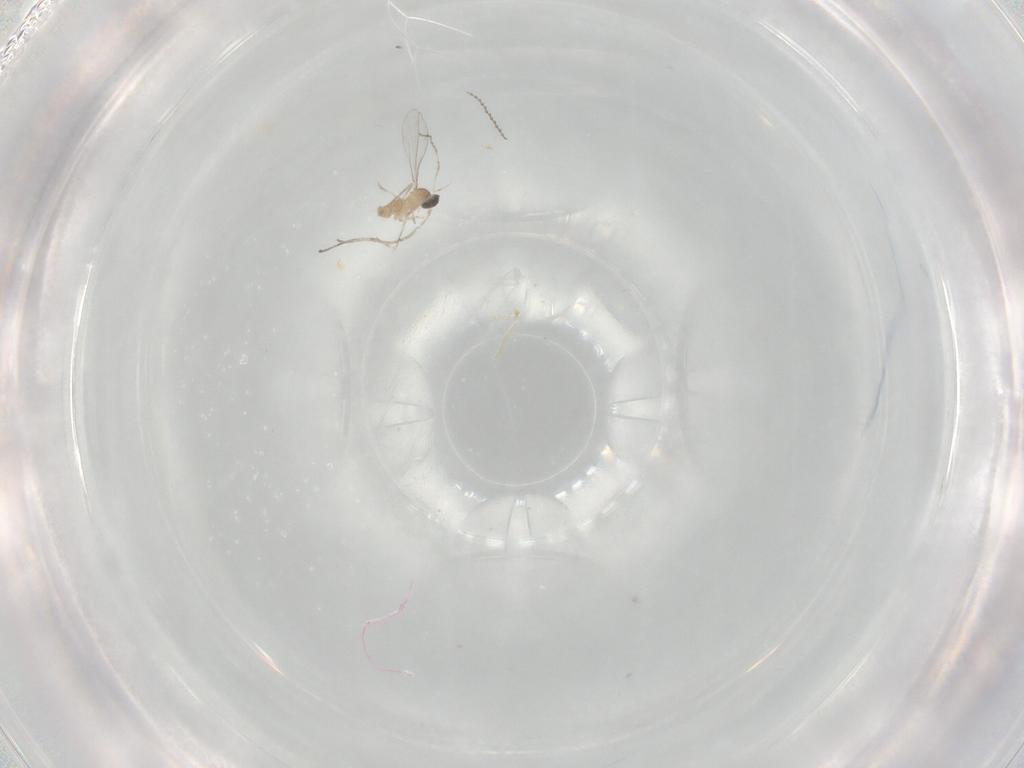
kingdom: Animalia
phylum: Arthropoda
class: Insecta
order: Diptera
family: Cecidomyiidae
